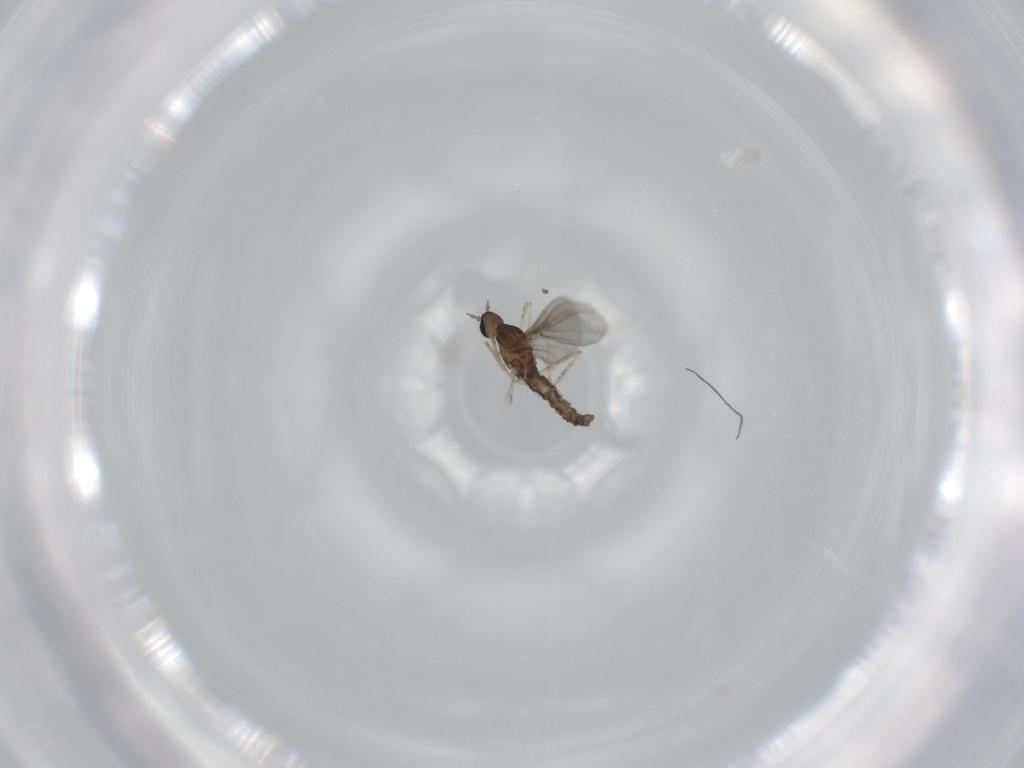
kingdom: Animalia
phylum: Arthropoda
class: Insecta
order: Diptera
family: Cecidomyiidae
